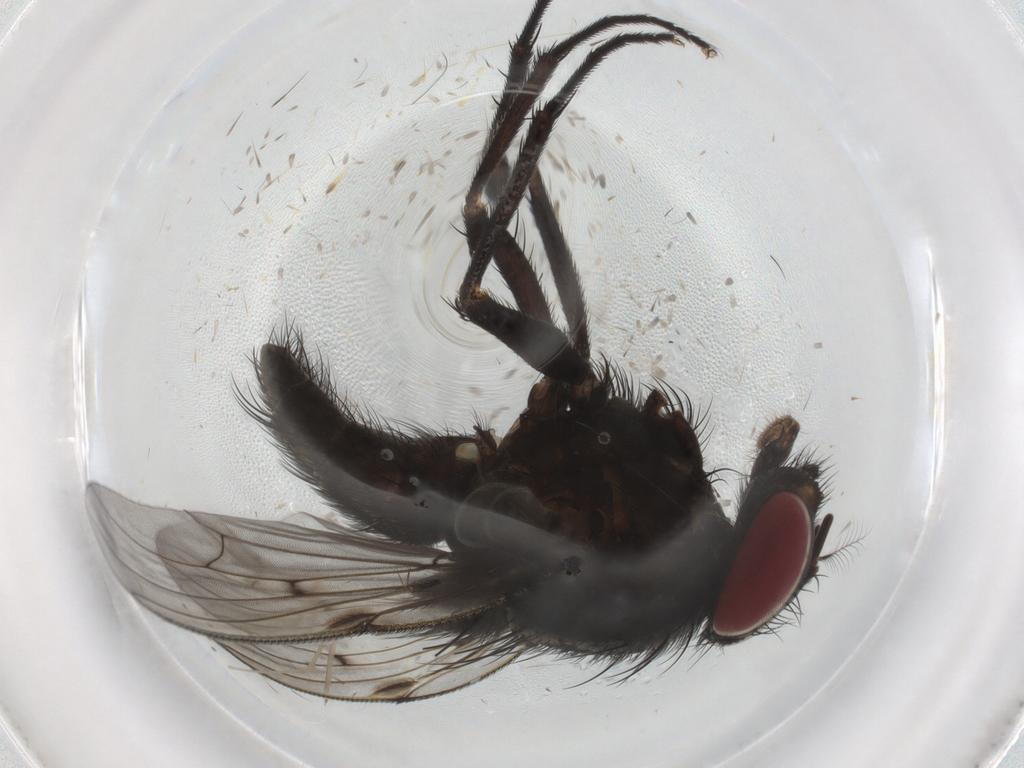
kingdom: Animalia
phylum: Arthropoda
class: Insecta
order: Diptera
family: Muscidae
